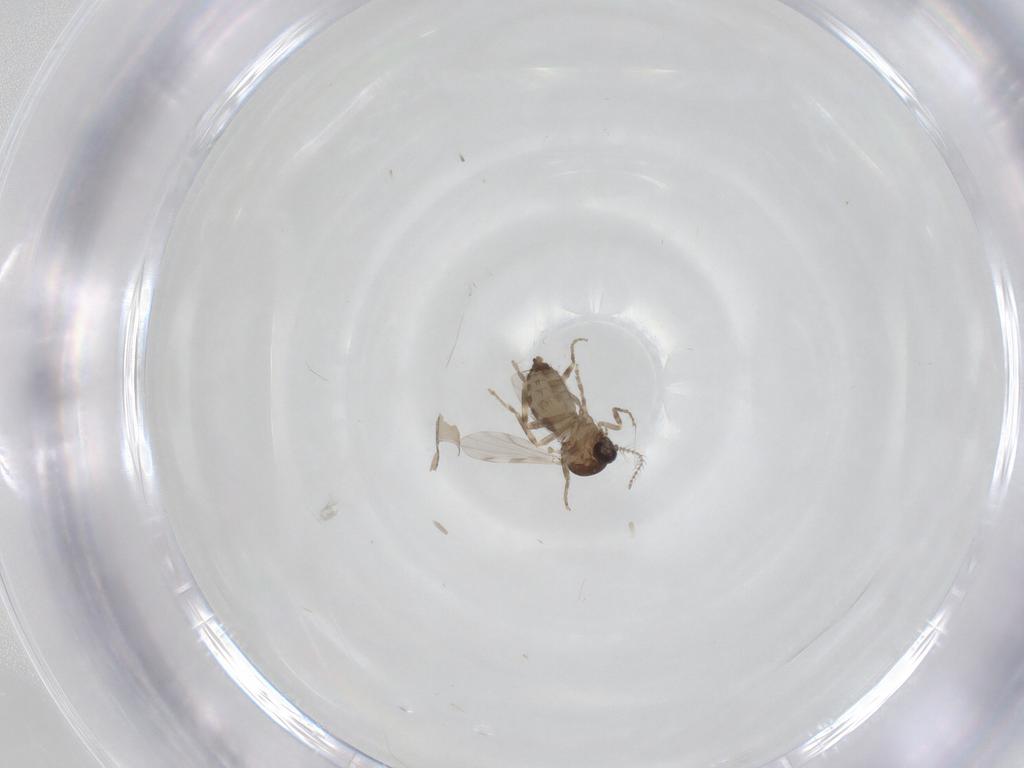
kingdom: Animalia
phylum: Arthropoda
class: Insecta
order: Diptera
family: Ceratopogonidae
